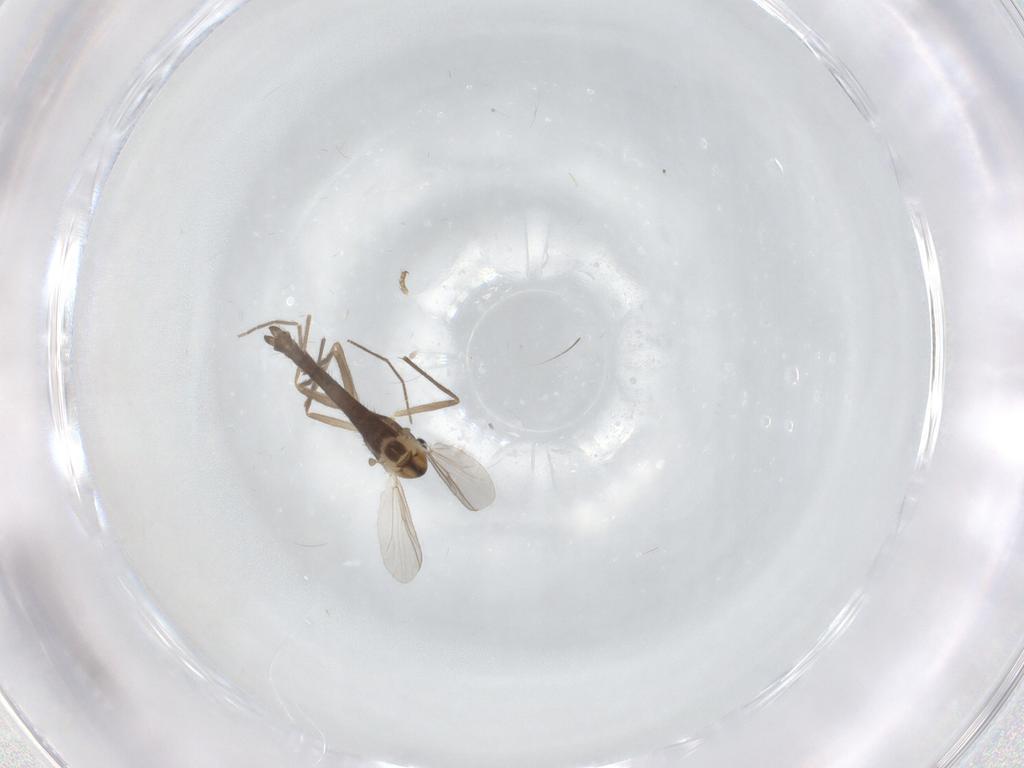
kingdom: Animalia
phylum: Arthropoda
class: Insecta
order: Diptera
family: Chironomidae
